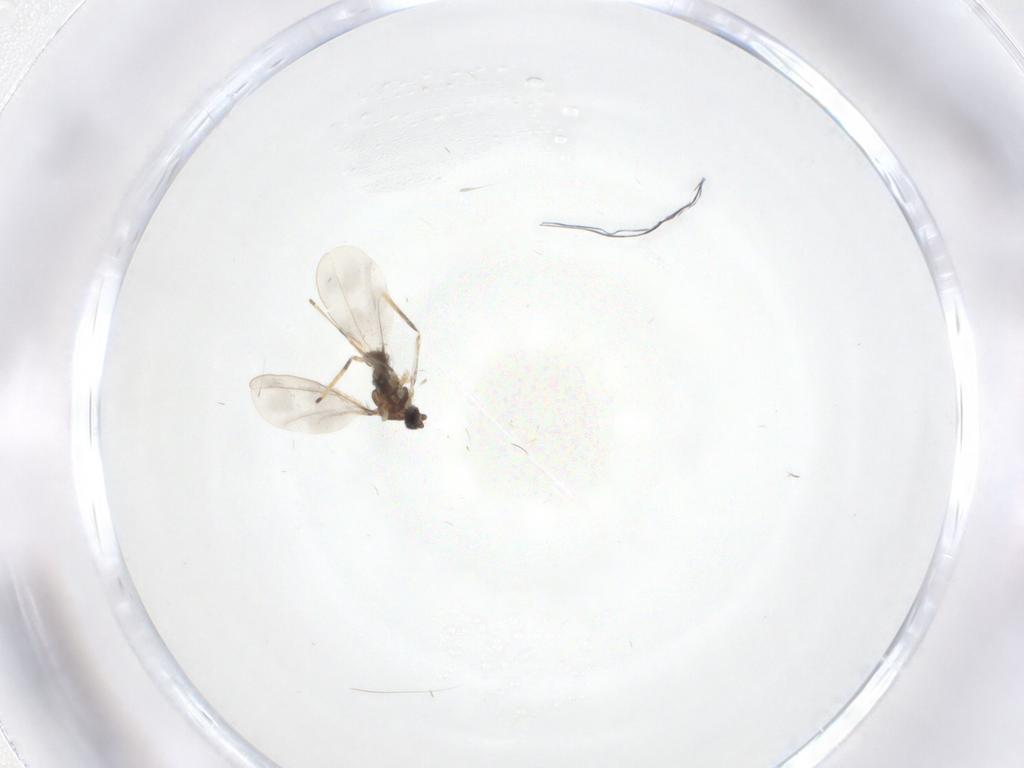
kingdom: Animalia
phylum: Arthropoda
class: Insecta
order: Diptera
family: Cecidomyiidae
